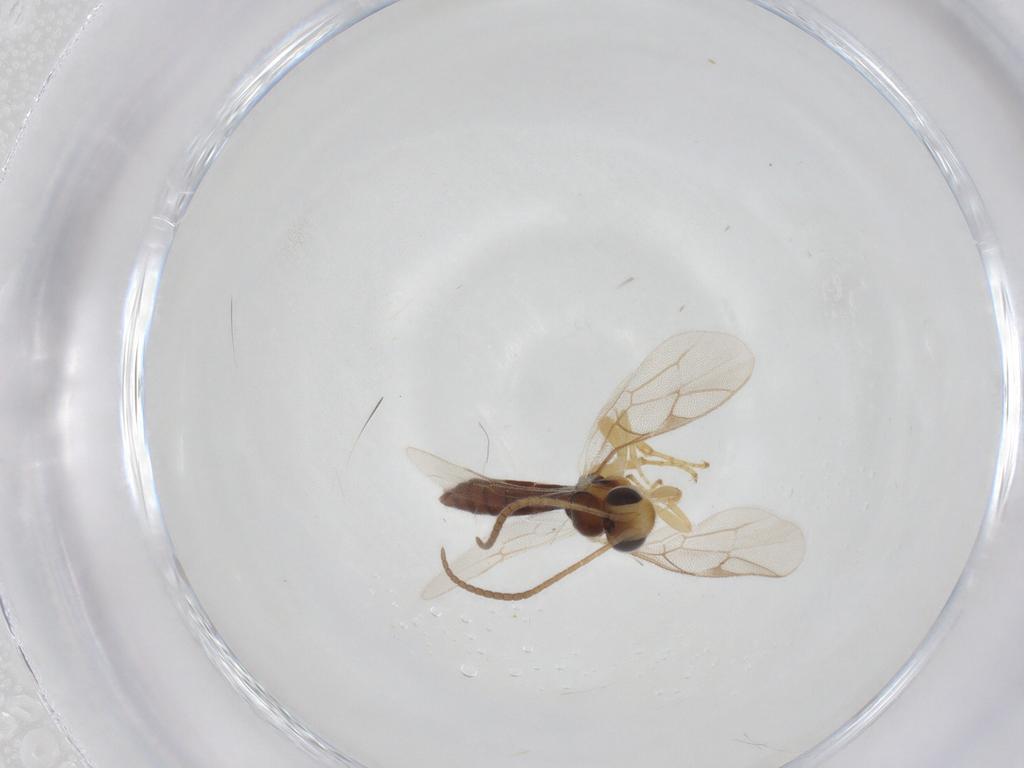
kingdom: Animalia
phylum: Arthropoda
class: Insecta
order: Hymenoptera
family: Ichneumonidae
